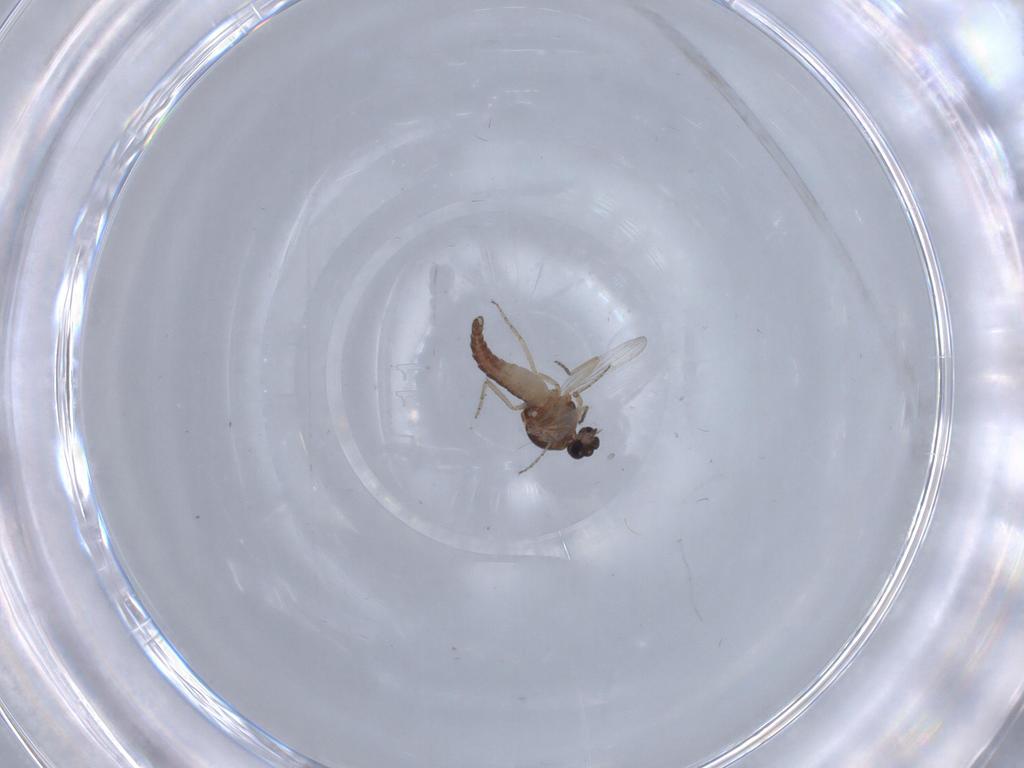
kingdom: Animalia
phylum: Arthropoda
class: Insecta
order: Diptera
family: Ceratopogonidae
